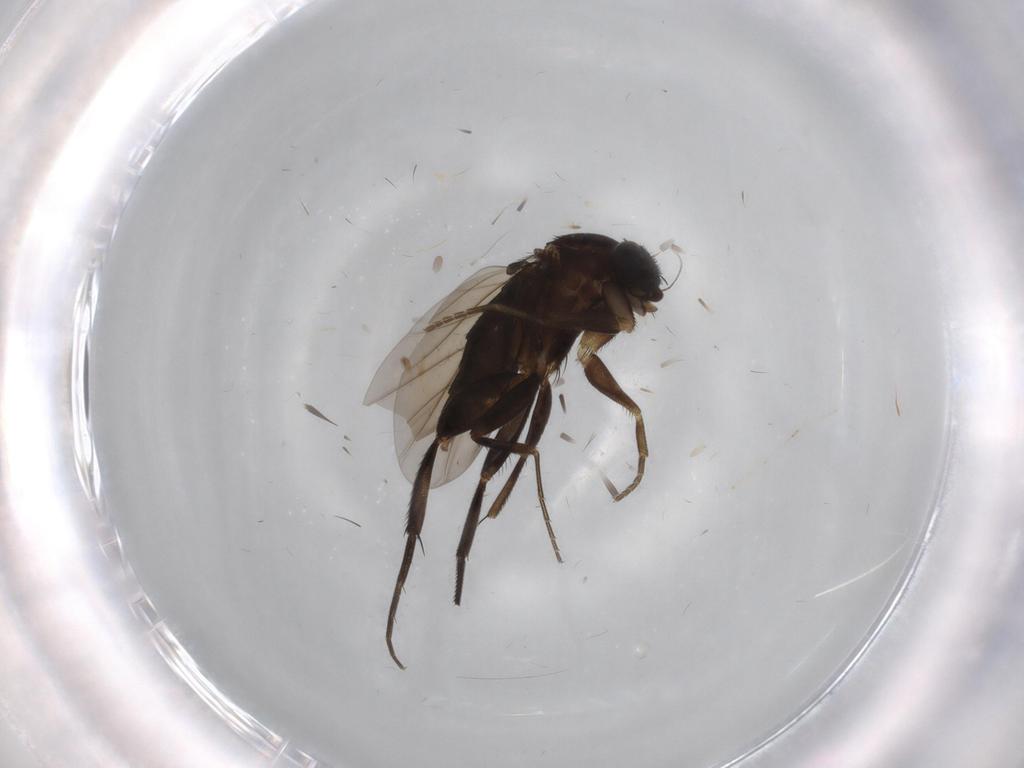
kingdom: Animalia
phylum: Arthropoda
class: Insecta
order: Diptera
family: Phoridae
